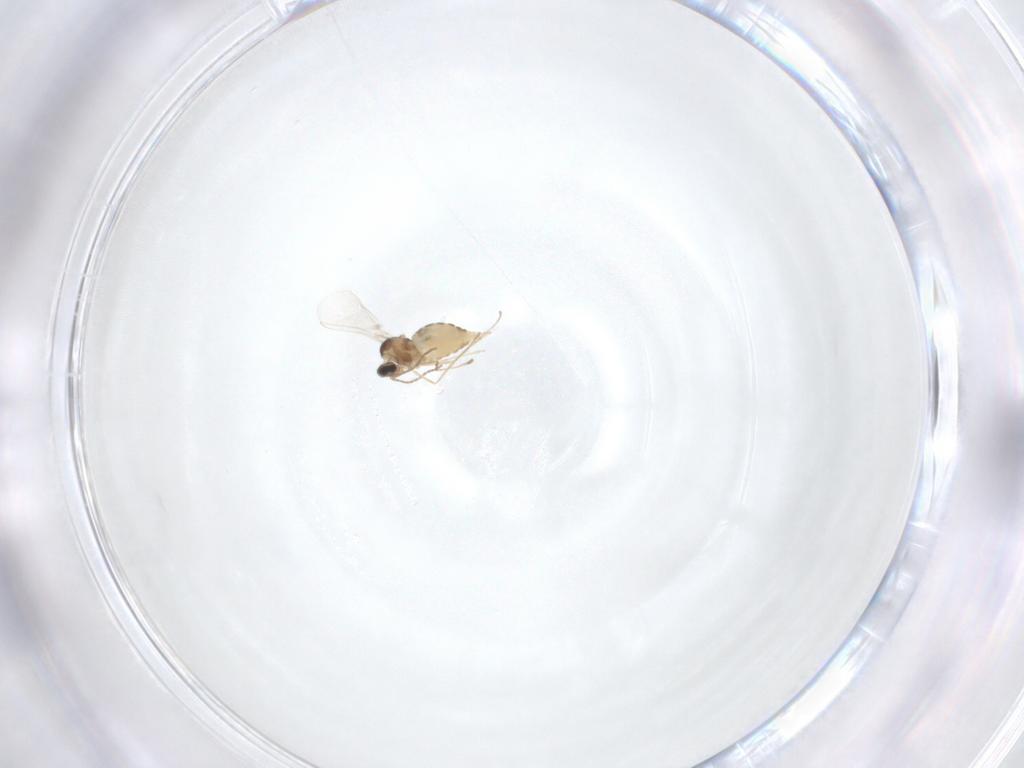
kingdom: Animalia
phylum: Arthropoda
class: Insecta
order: Diptera
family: Cecidomyiidae
